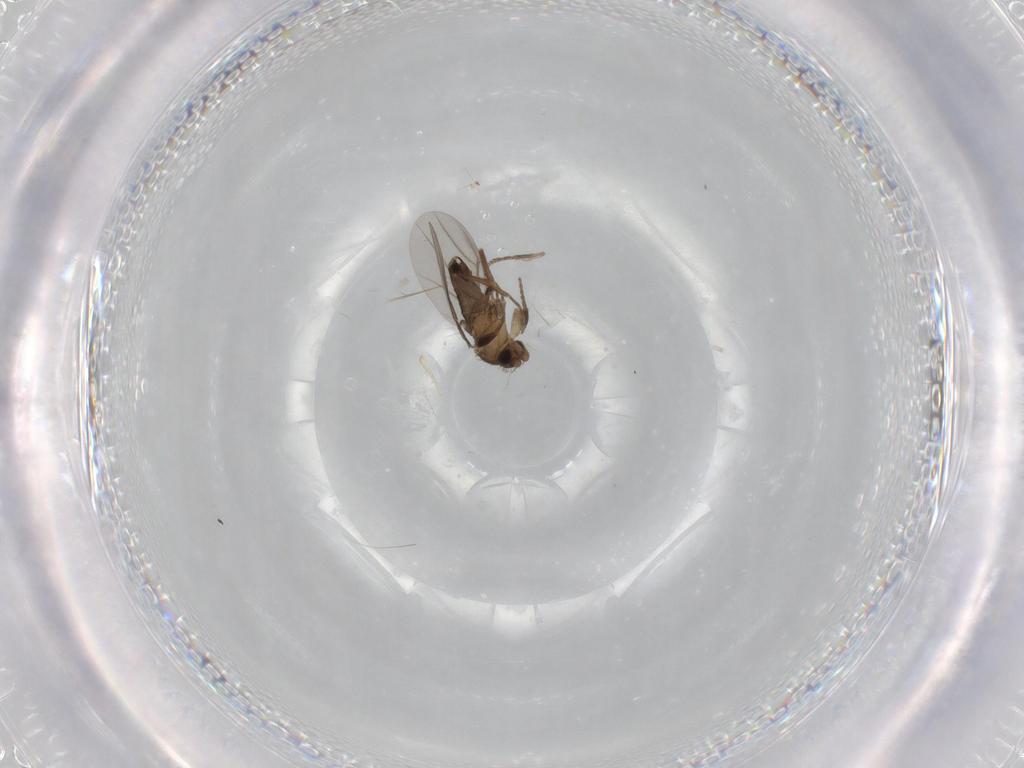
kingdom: Animalia
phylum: Arthropoda
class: Insecta
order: Diptera
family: Phoridae
